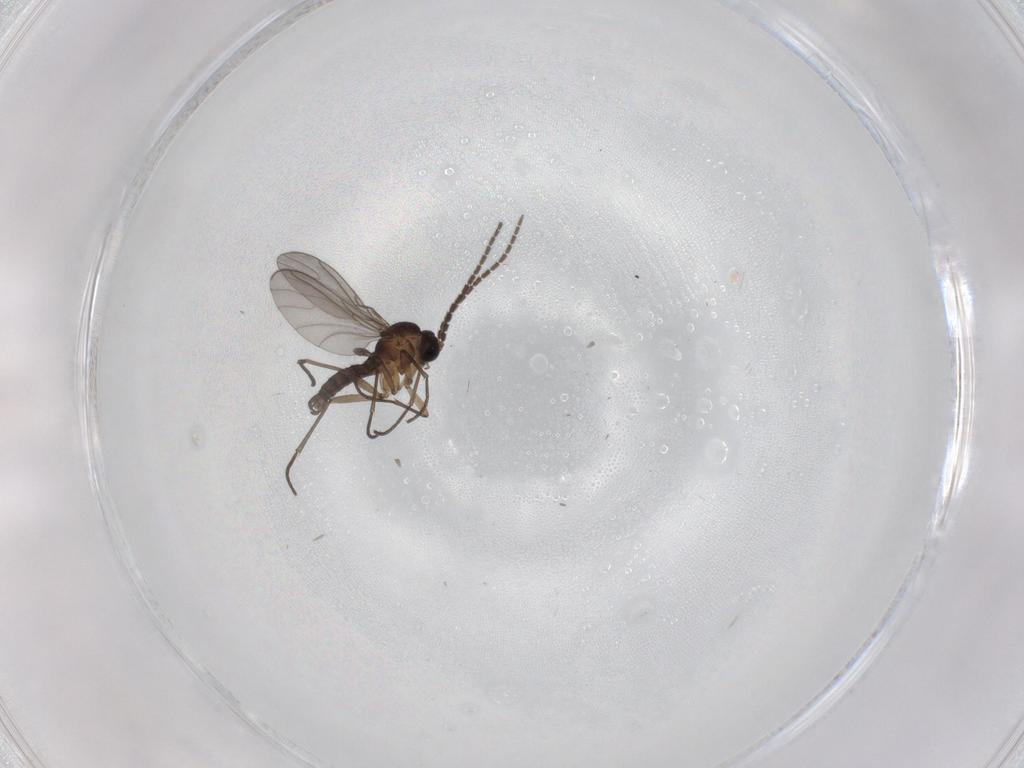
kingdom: Animalia
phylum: Arthropoda
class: Insecta
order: Diptera
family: Sciaridae
